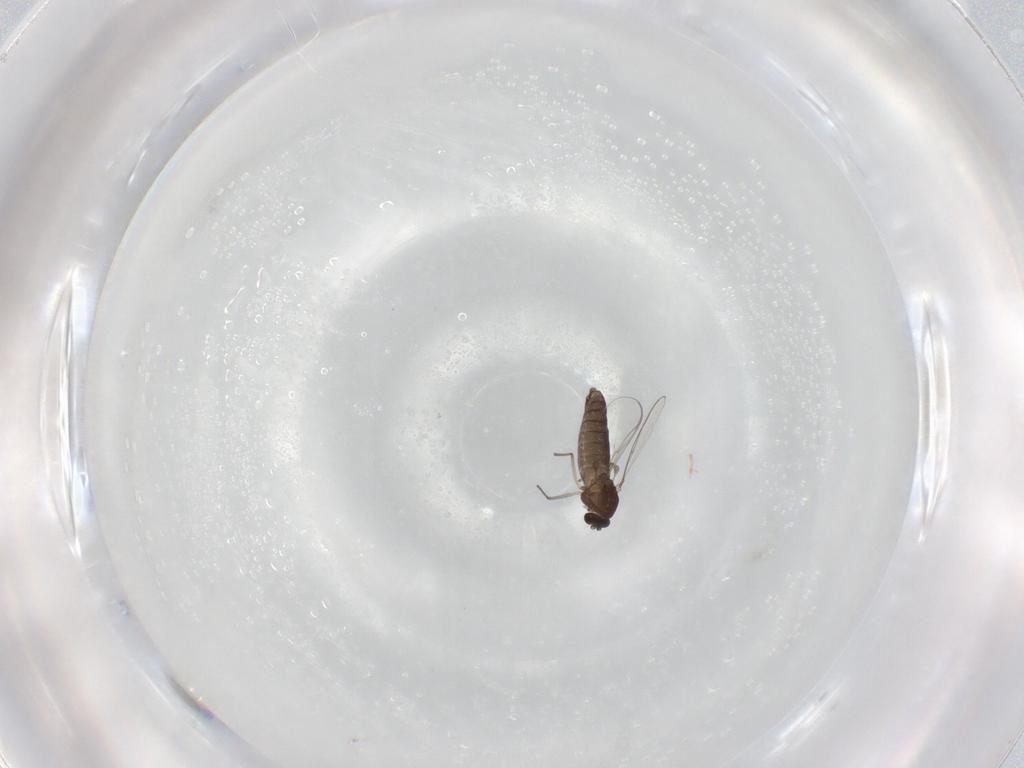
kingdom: Animalia
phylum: Arthropoda
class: Insecta
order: Diptera
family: Chironomidae
